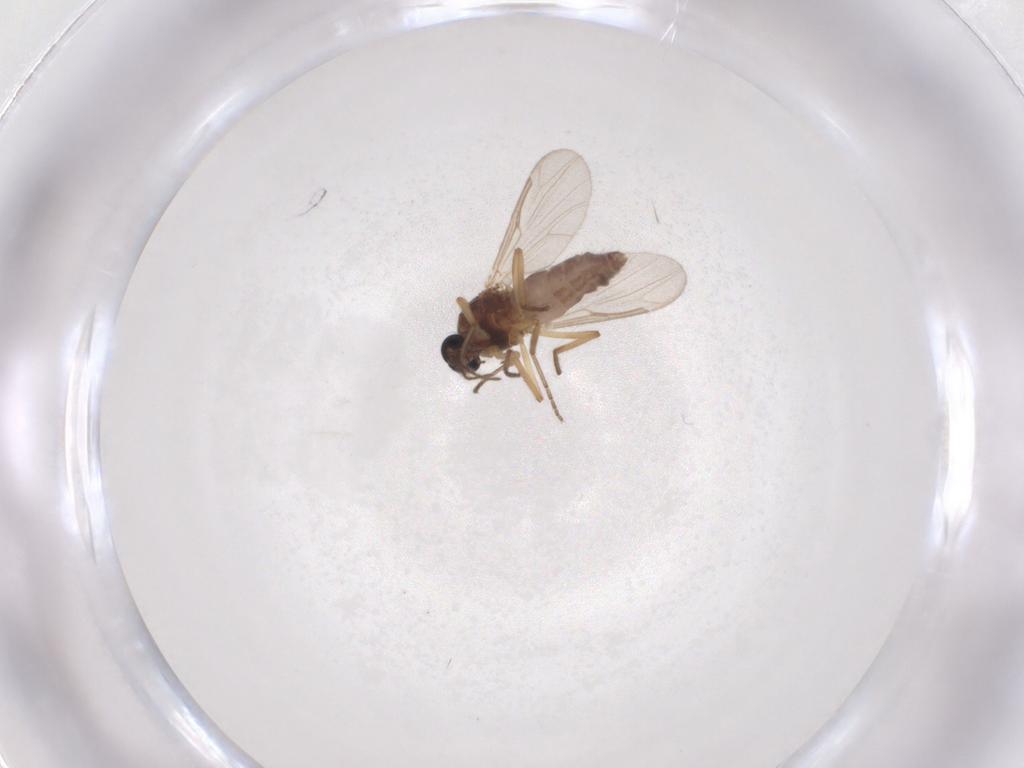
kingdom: Animalia
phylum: Arthropoda
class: Insecta
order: Diptera
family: Ceratopogonidae
